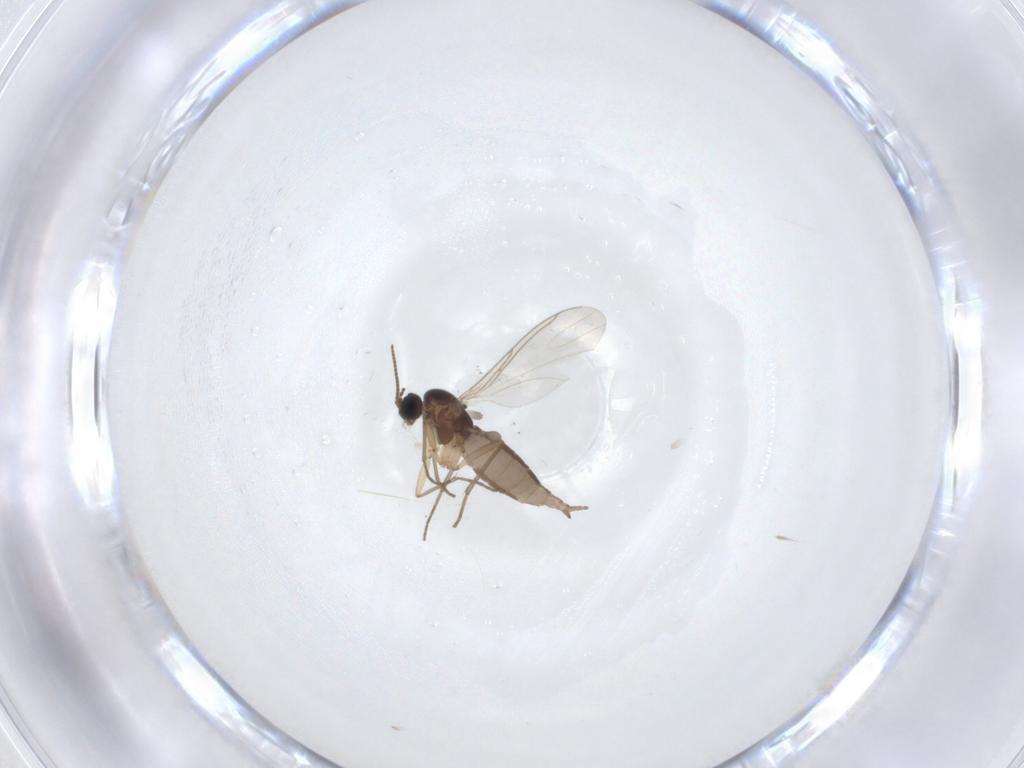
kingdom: Animalia
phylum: Arthropoda
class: Insecta
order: Diptera
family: Sciaridae
